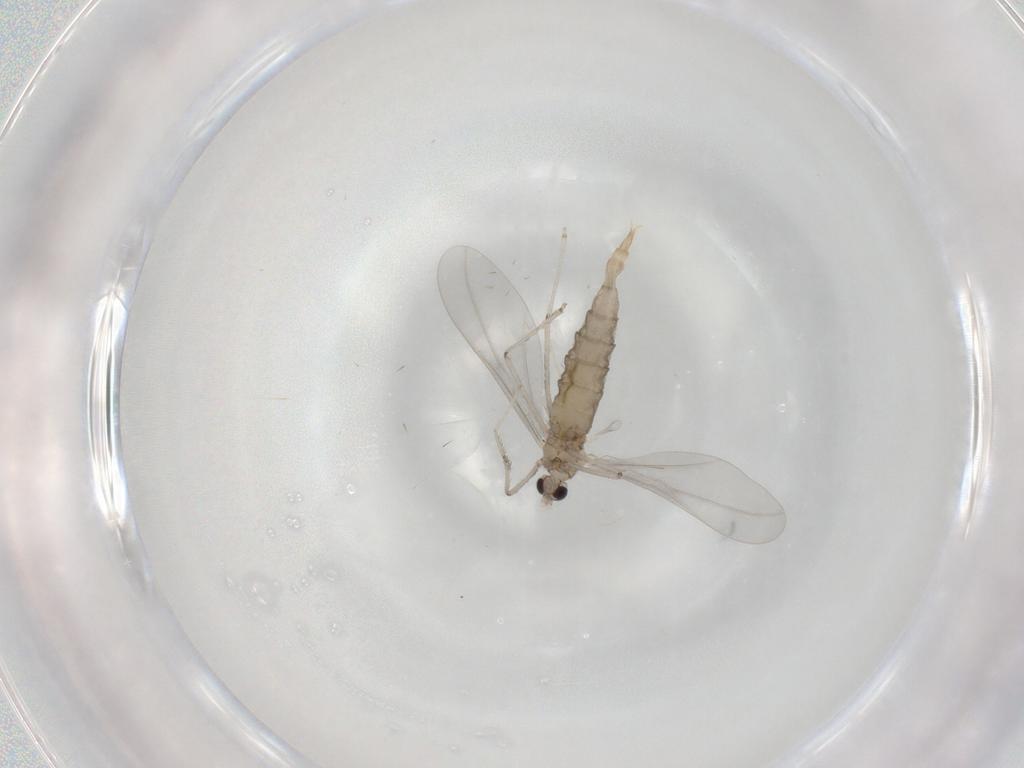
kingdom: Animalia
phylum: Arthropoda
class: Insecta
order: Diptera
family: Cecidomyiidae
